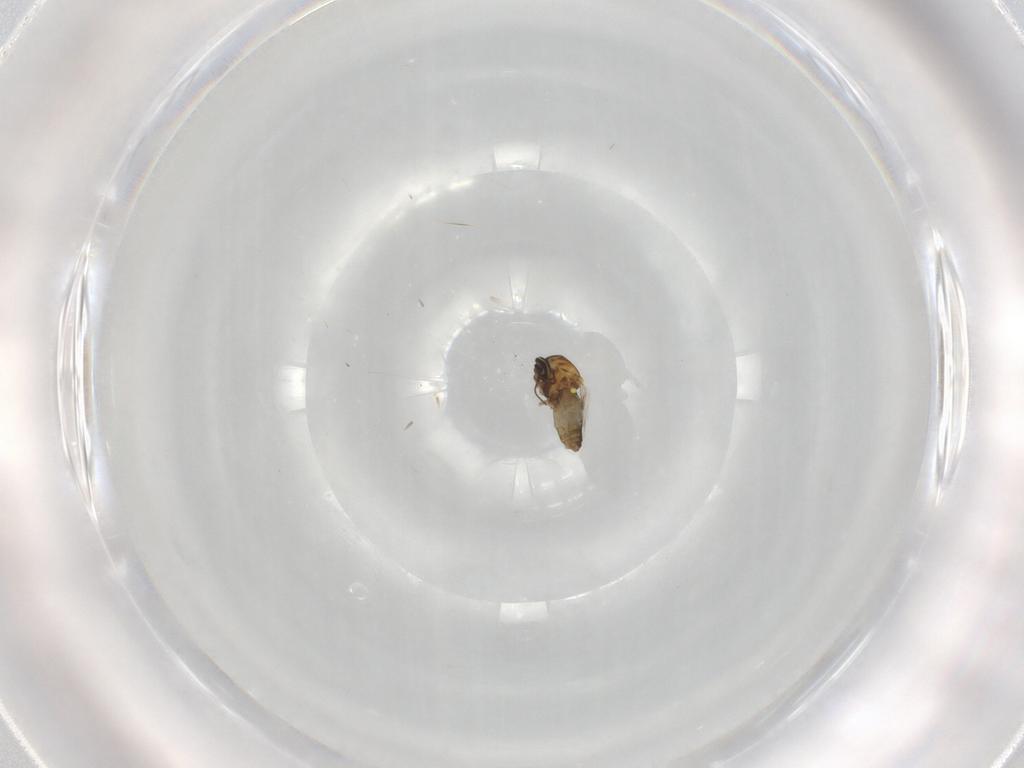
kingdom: Animalia
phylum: Arthropoda
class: Insecta
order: Diptera
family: Ceratopogonidae
